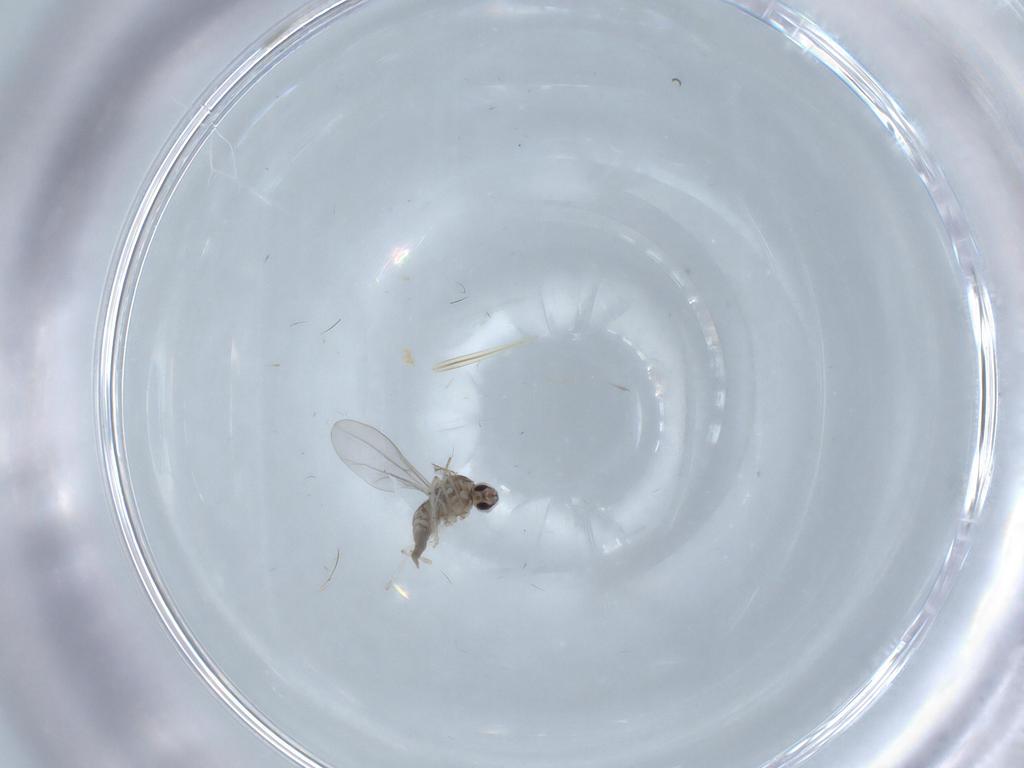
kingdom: Animalia
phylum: Arthropoda
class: Insecta
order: Diptera
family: Cecidomyiidae
